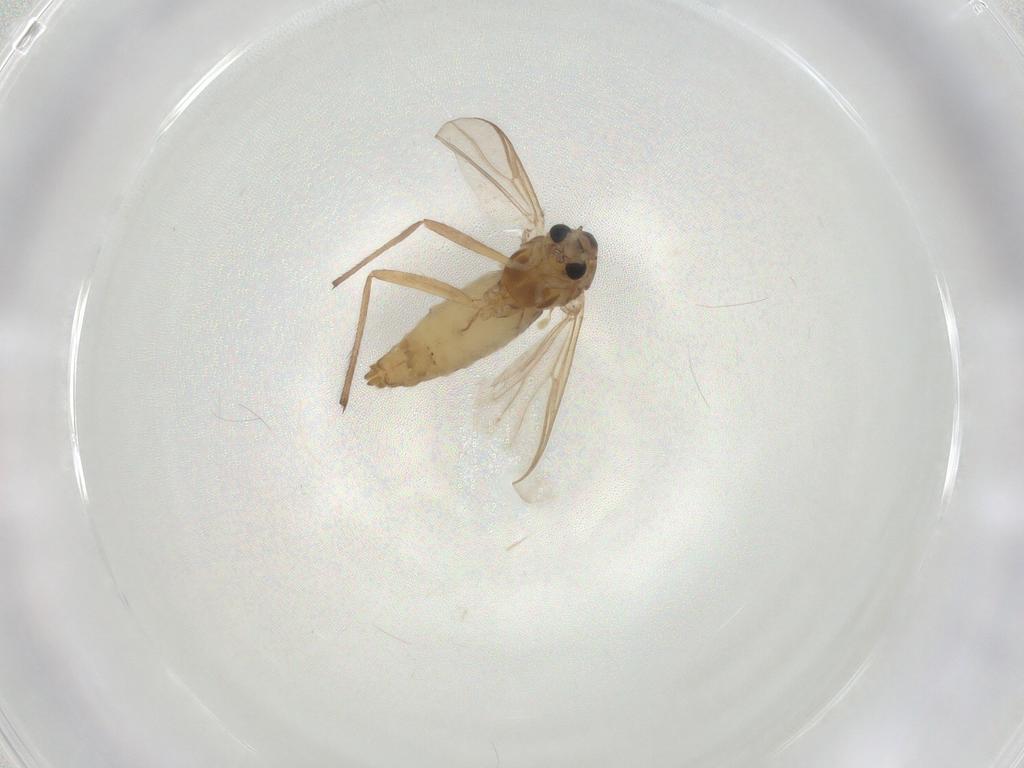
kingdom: Animalia
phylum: Arthropoda
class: Insecta
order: Diptera
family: Chironomidae
